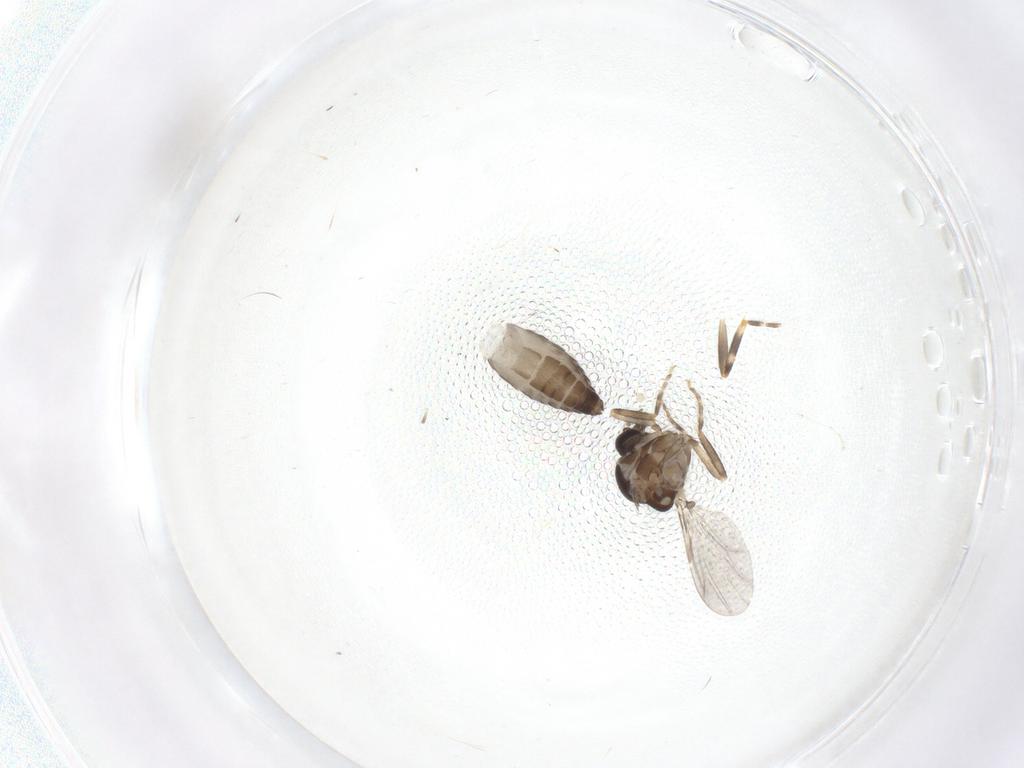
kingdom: Animalia
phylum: Arthropoda
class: Insecta
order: Diptera
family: Ceratopogonidae
